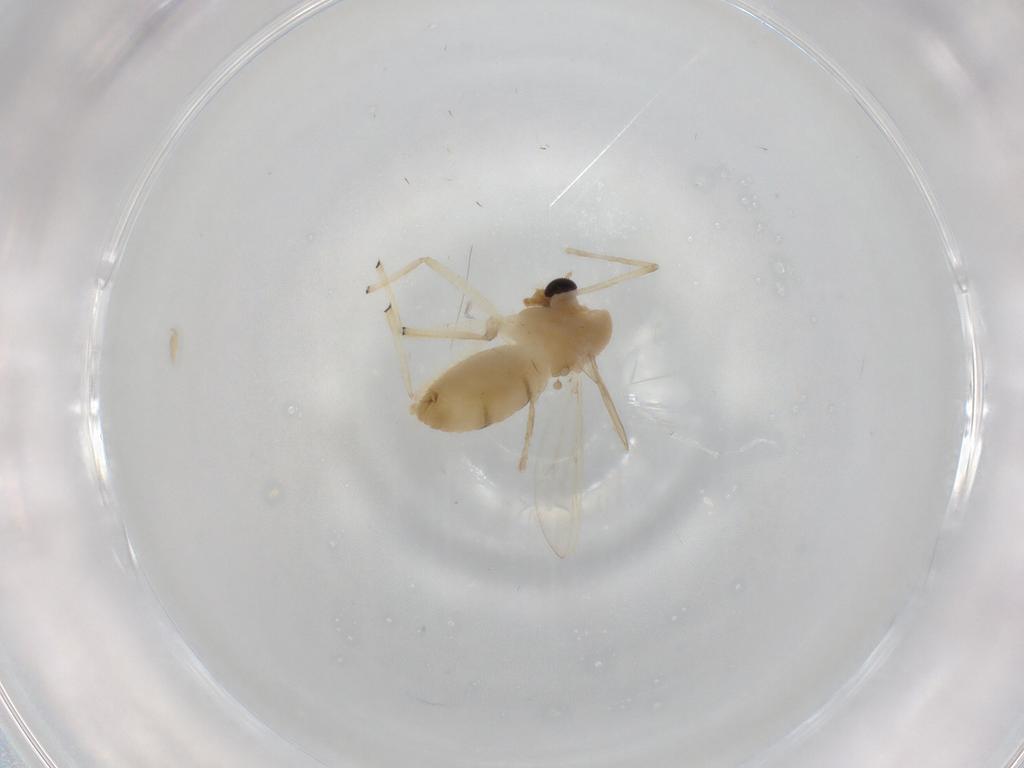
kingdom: Animalia
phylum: Arthropoda
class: Insecta
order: Diptera
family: Chironomidae
